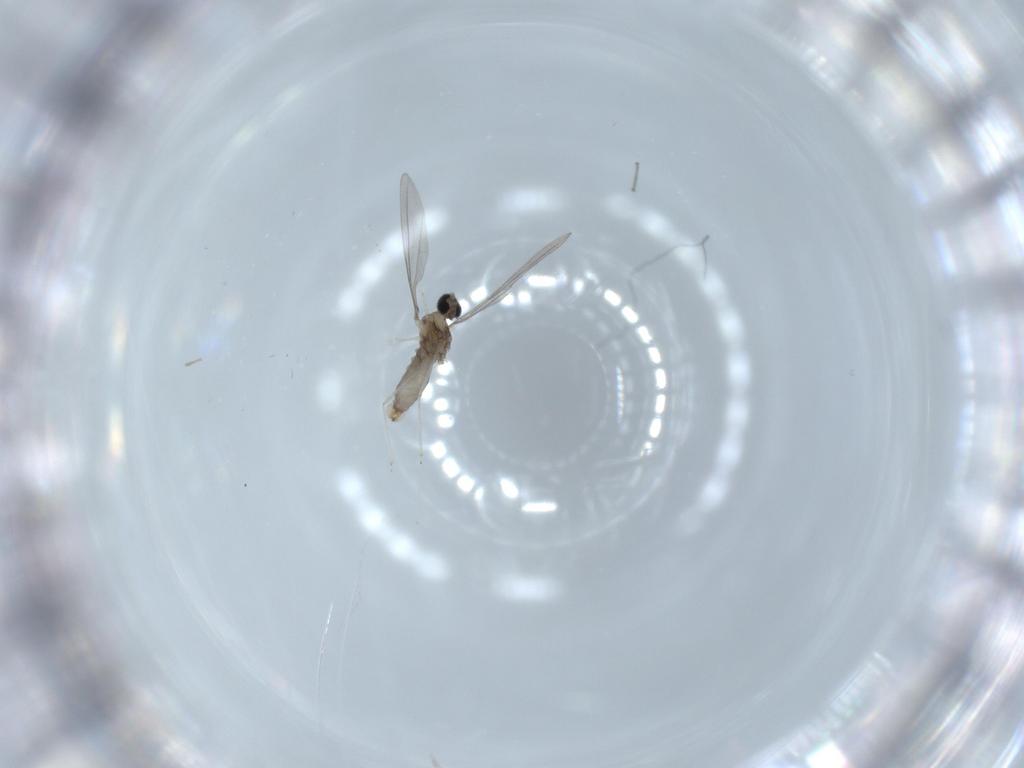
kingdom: Animalia
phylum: Arthropoda
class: Insecta
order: Diptera
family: Cecidomyiidae
